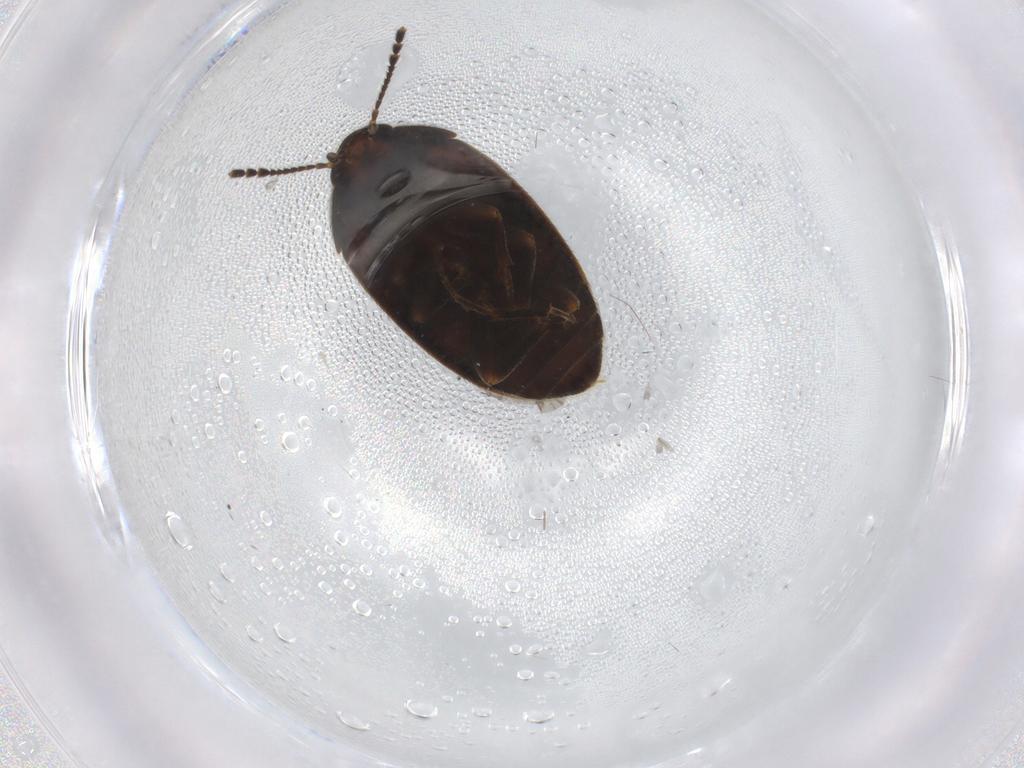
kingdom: Animalia
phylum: Arthropoda
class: Insecta
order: Coleoptera
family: Mycetophagidae
